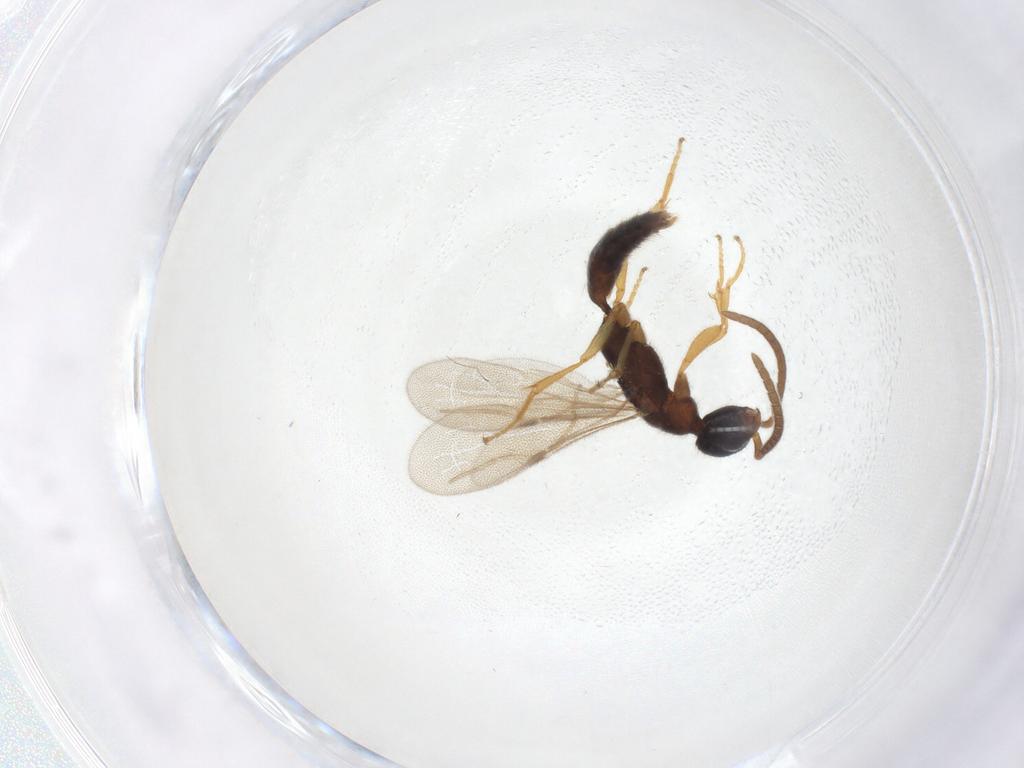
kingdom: Animalia
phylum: Arthropoda
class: Insecta
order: Hymenoptera
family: Bethylidae
